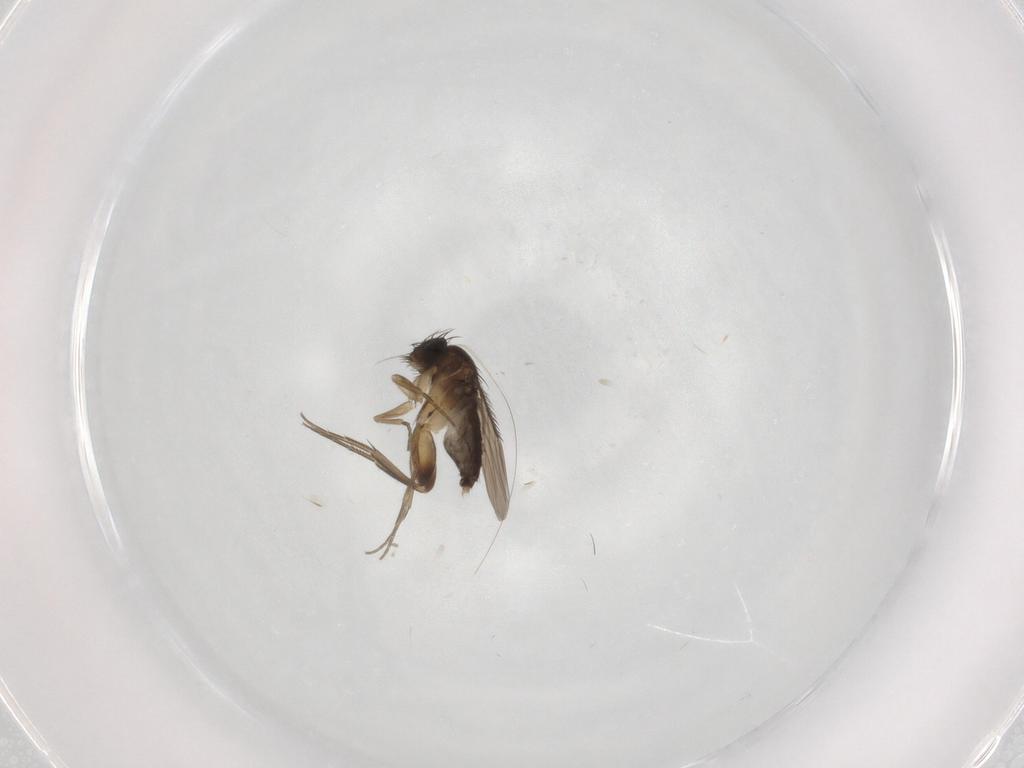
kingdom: Animalia
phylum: Arthropoda
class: Insecta
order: Diptera
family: Phoridae
